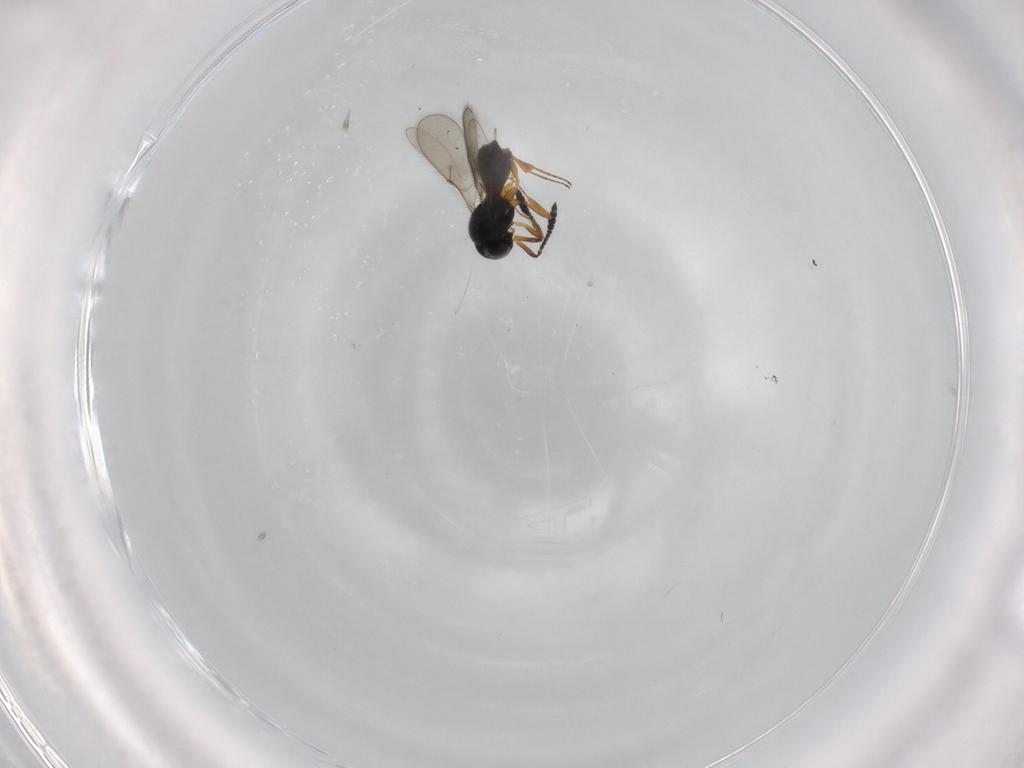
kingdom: Animalia
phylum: Arthropoda
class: Insecta
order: Hymenoptera
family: Scelionidae
